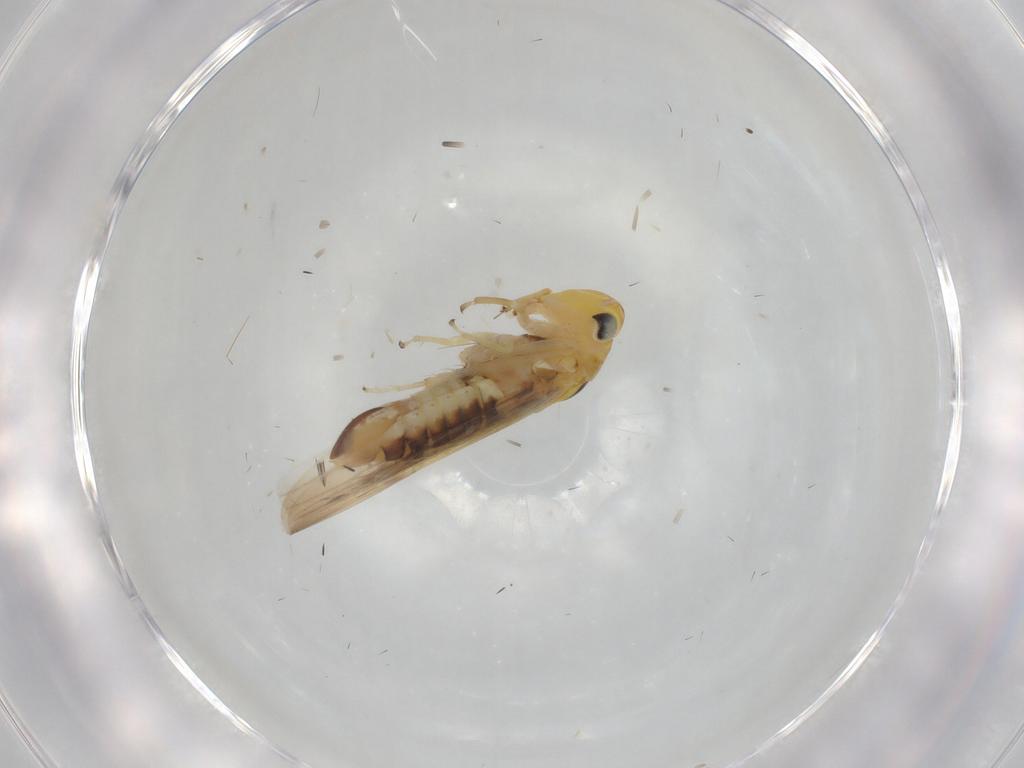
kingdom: Animalia
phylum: Arthropoda
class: Insecta
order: Hemiptera
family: Cicadellidae
